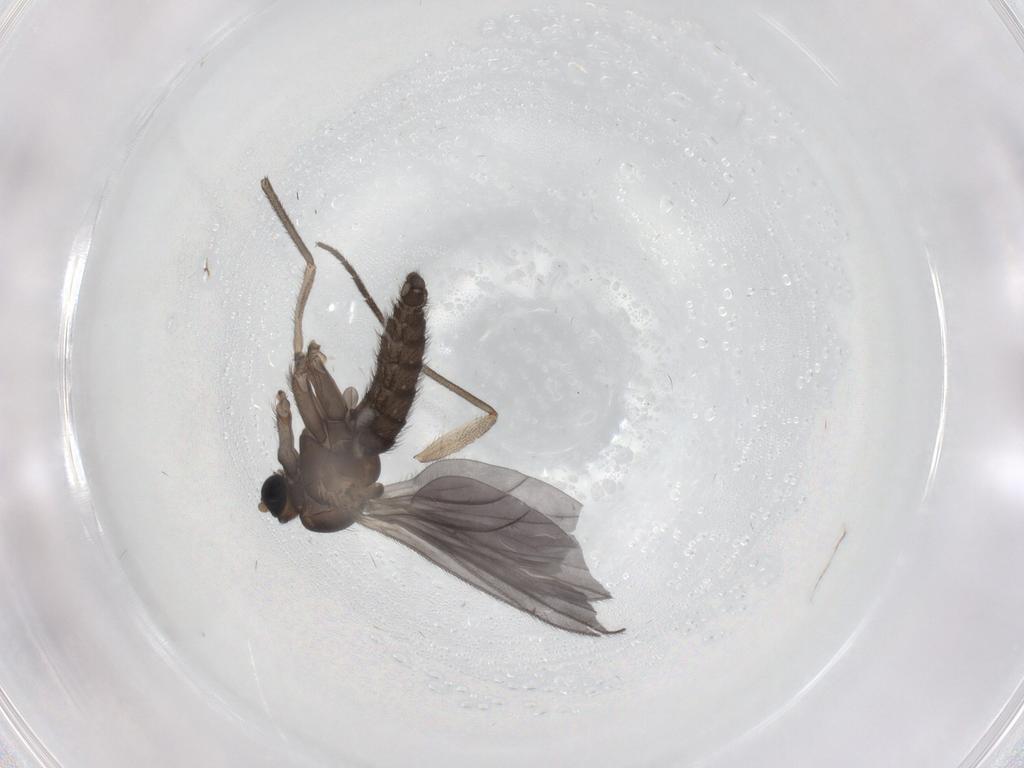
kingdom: Animalia
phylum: Arthropoda
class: Insecta
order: Diptera
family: Sciaridae
